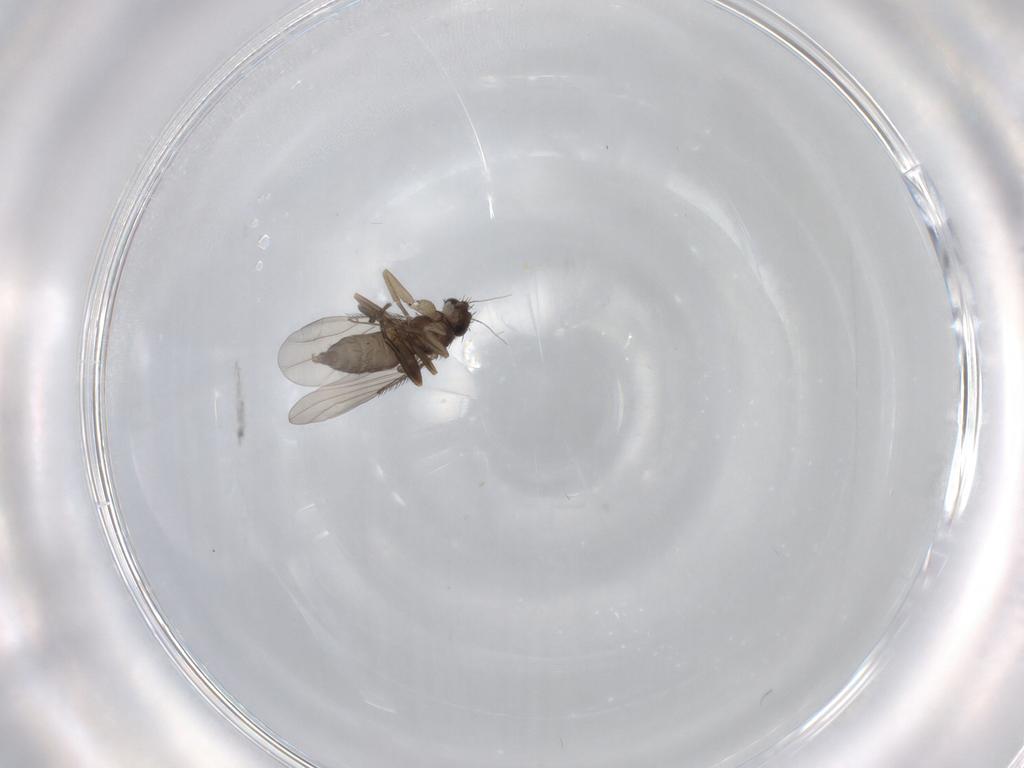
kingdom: Animalia
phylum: Arthropoda
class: Insecta
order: Diptera
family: Phoridae
